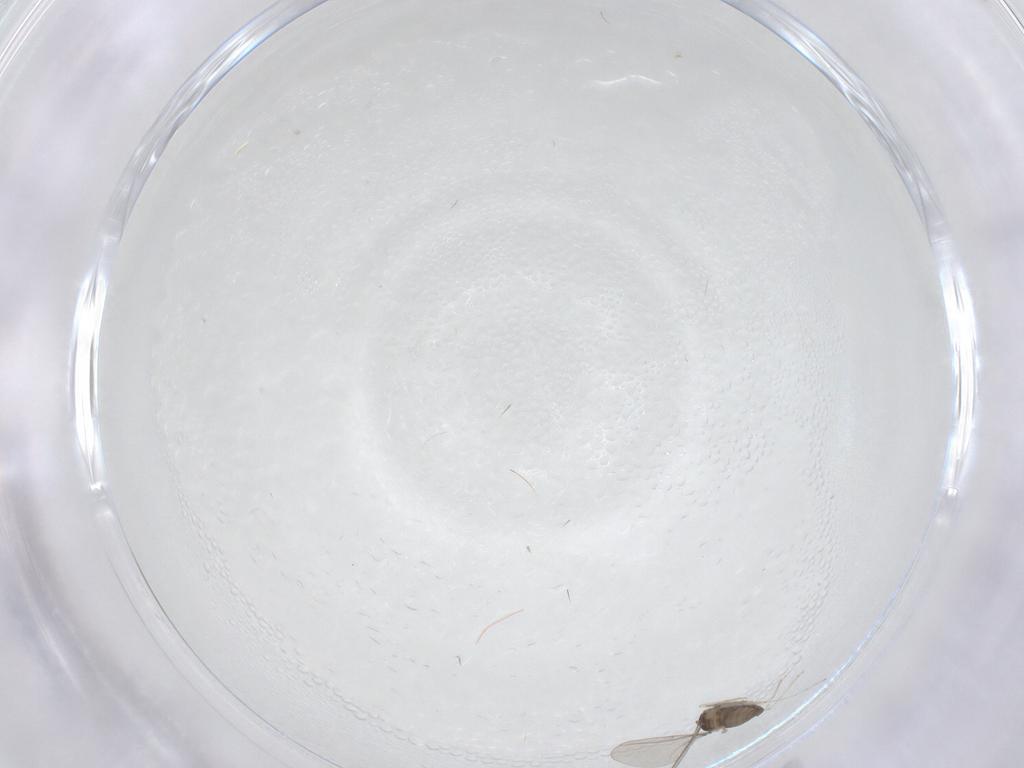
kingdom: Animalia
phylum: Arthropoda
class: Insecta
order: Diptera
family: Cecidomyiidae
